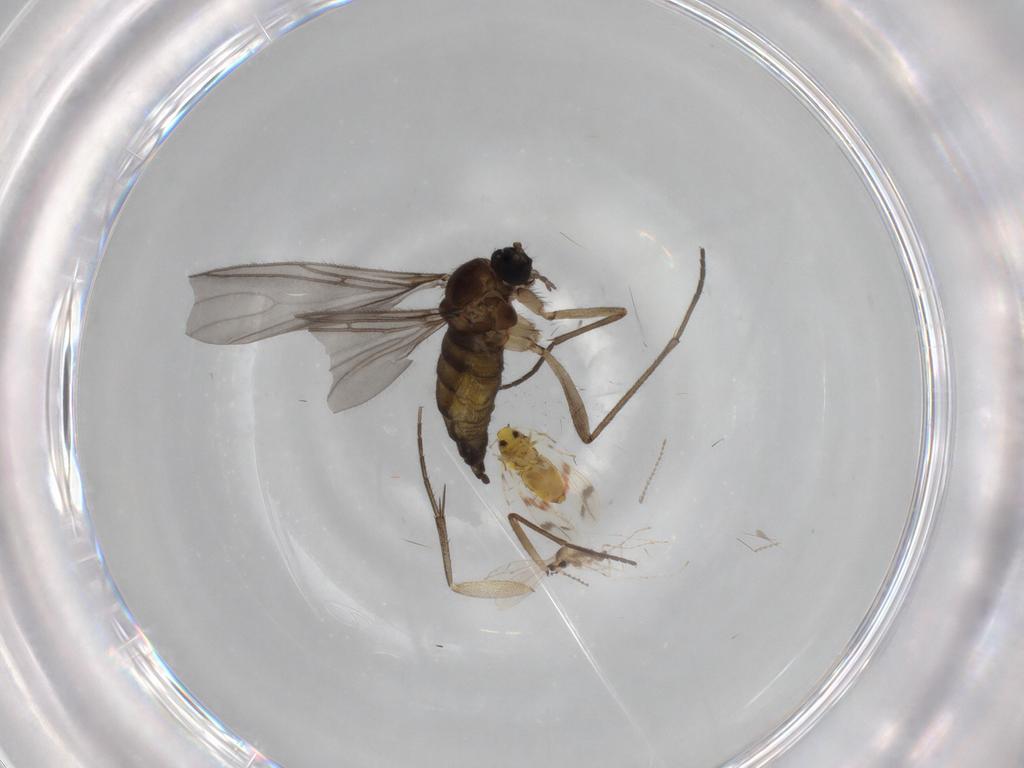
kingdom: Animalia
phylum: Arthropoda
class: Insecta
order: Diptera
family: Sciaridae
